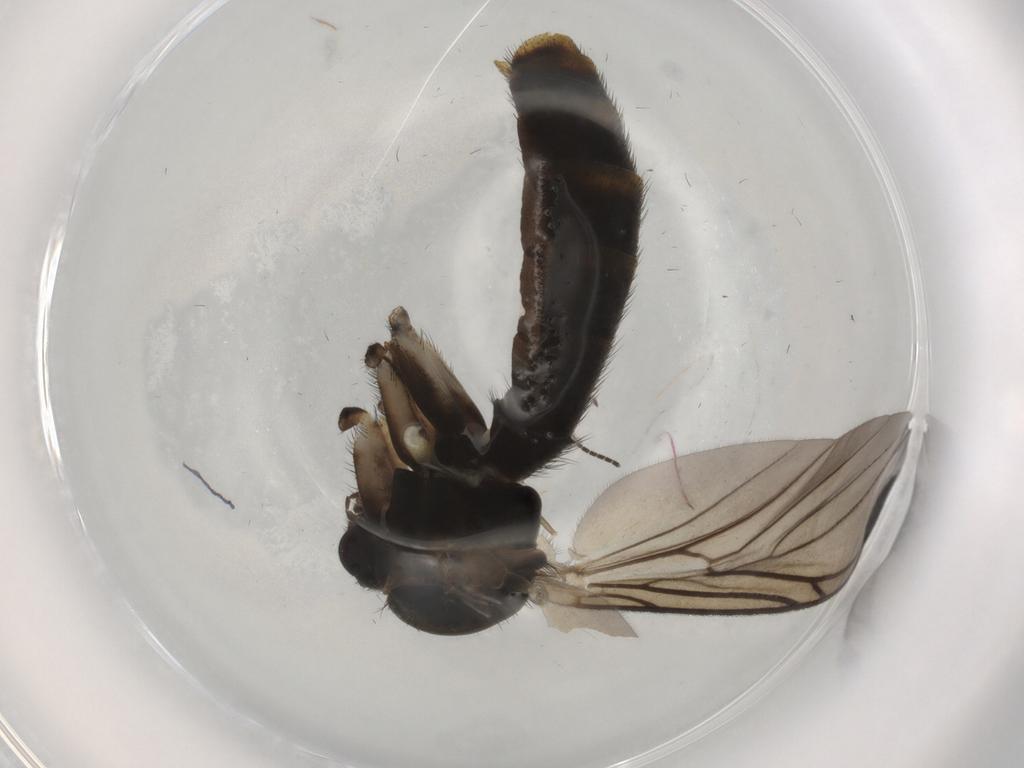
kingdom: Animalia
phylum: Arthropoda
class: Insecta
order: Diptera
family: Keroplatidae
